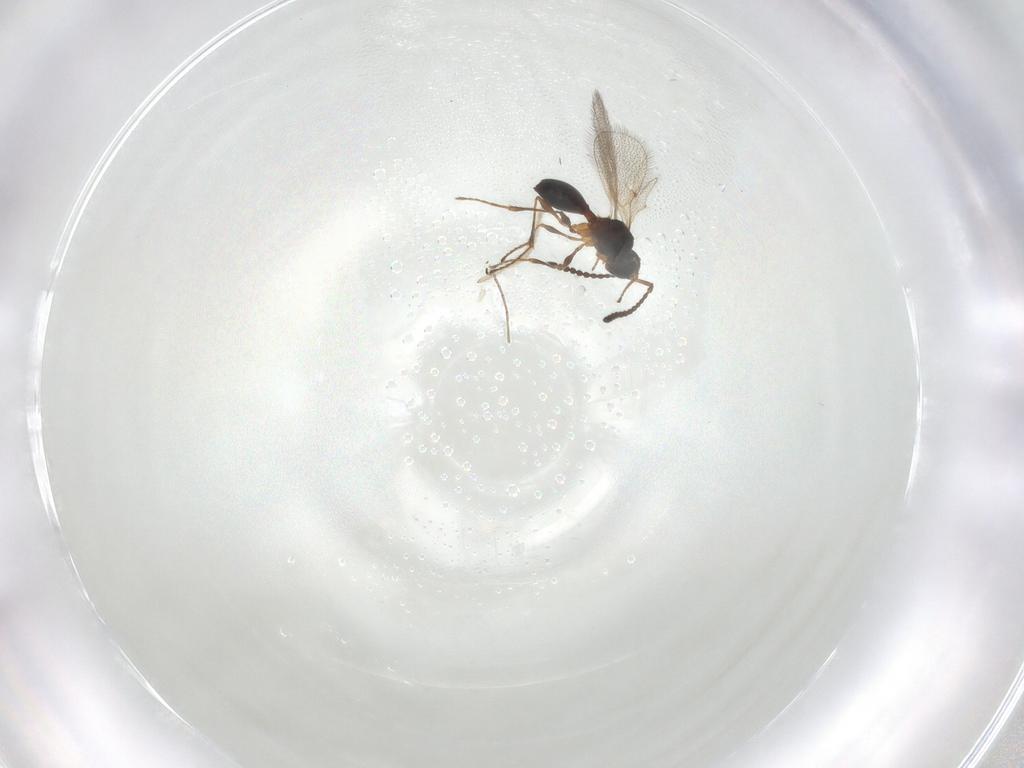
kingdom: Animalia
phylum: Arthropoda
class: Insecta
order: Hymenoptera
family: Diapriidae
